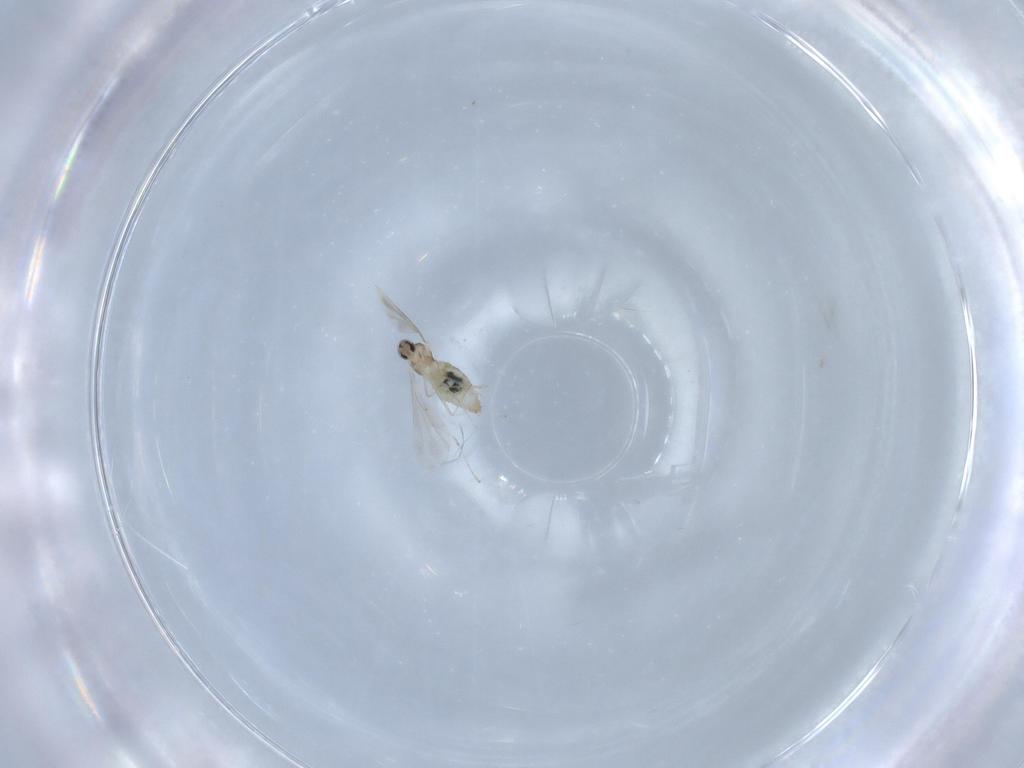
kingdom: Animalia
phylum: Arthropoda
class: Insecta
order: Diptera
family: Cecidomyiidae
